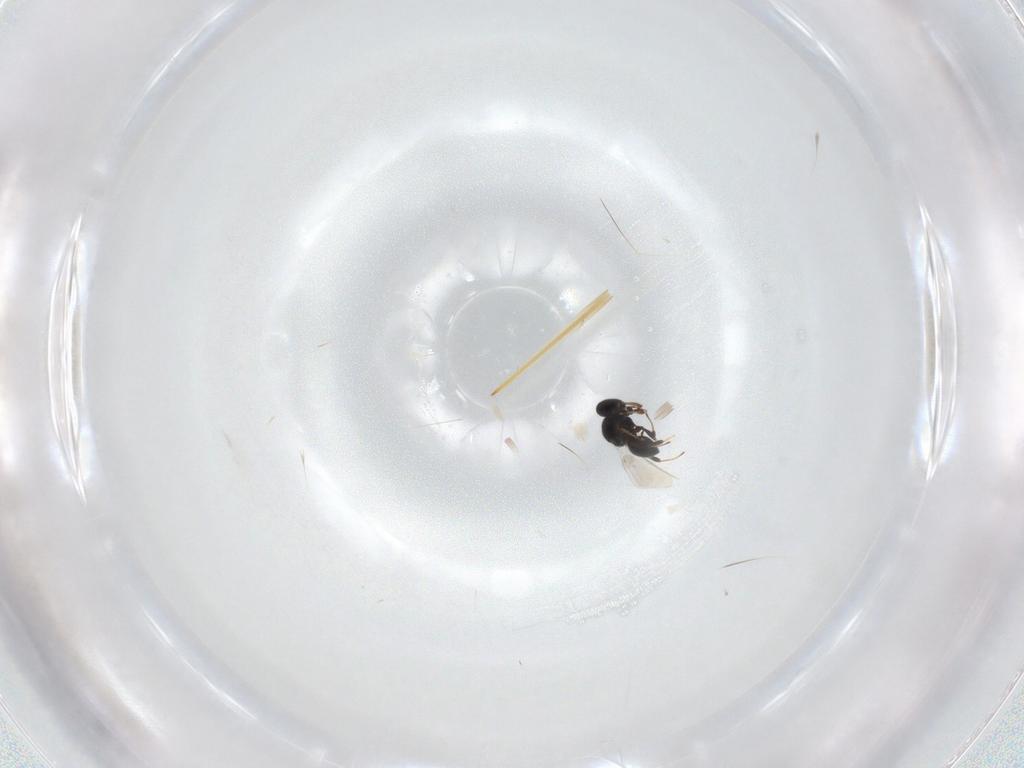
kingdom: Animalia
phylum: Arthropoda
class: Insecta
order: Hymenoptera
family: Platygastridae
